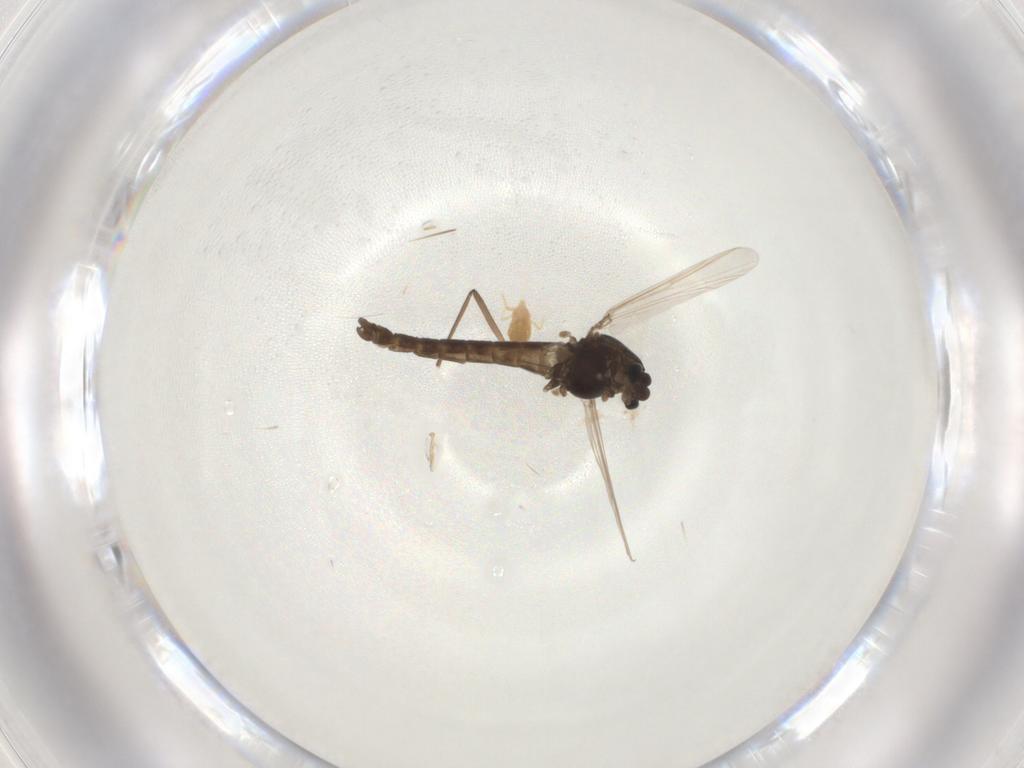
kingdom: Animalia
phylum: Arthropoda
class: Insecta
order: Diptera
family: Chironomidae
